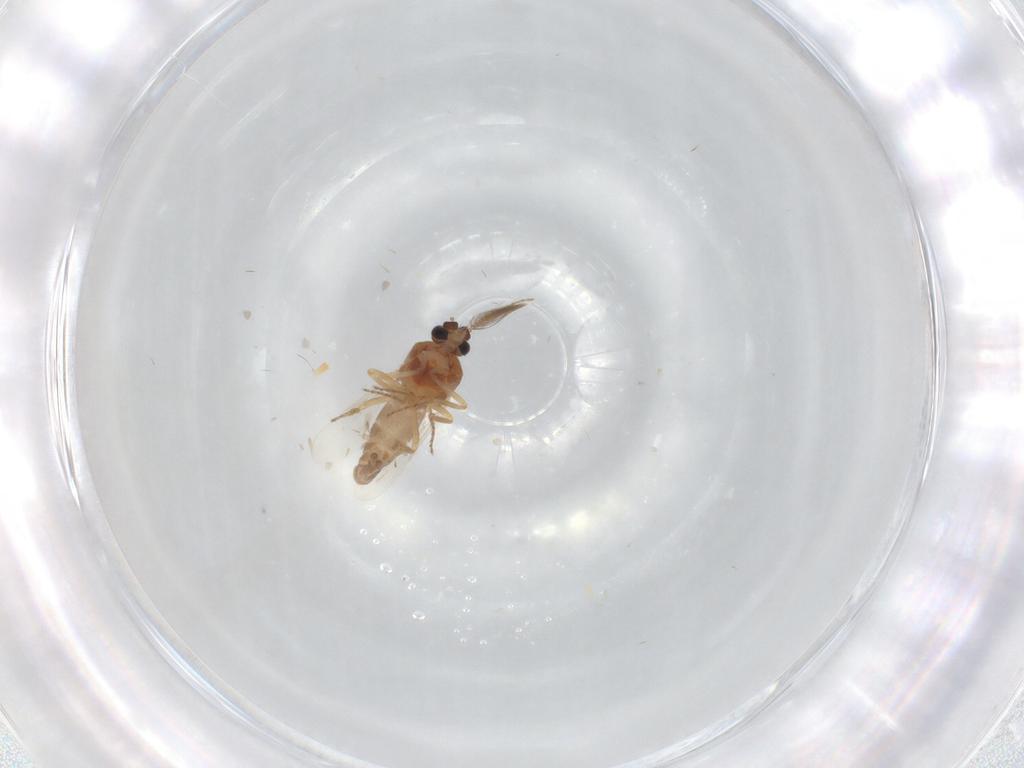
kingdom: Animalia
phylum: Arthropoda
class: Insecta
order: Diptera
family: Ceratopogonidae
